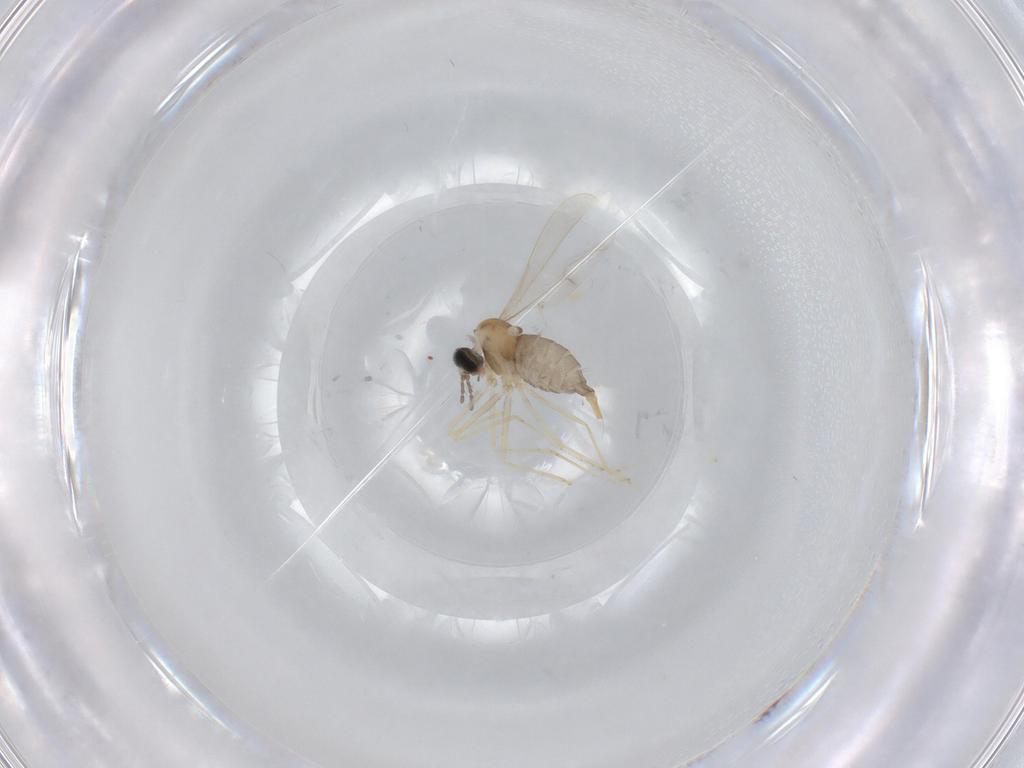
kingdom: Animalia
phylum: Arthropoda
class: Insecta
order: Diptera
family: Cecidomyiidae
